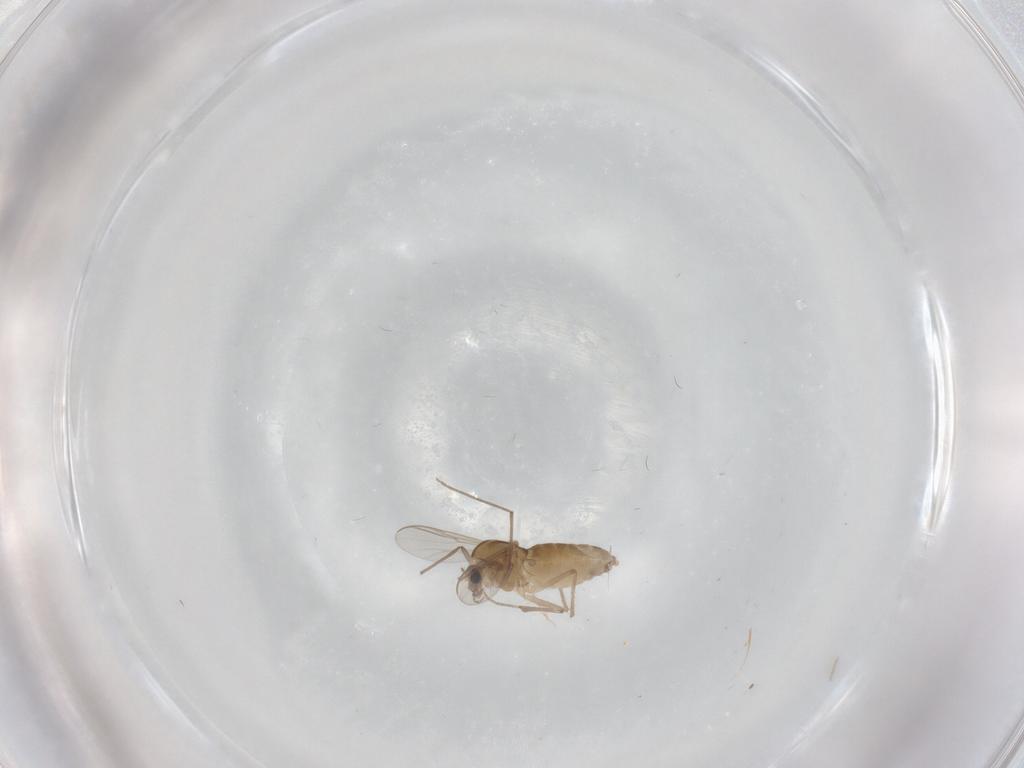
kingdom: Animalia
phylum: Arthropoda
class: Insecta
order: Diptera
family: Chironomidae
